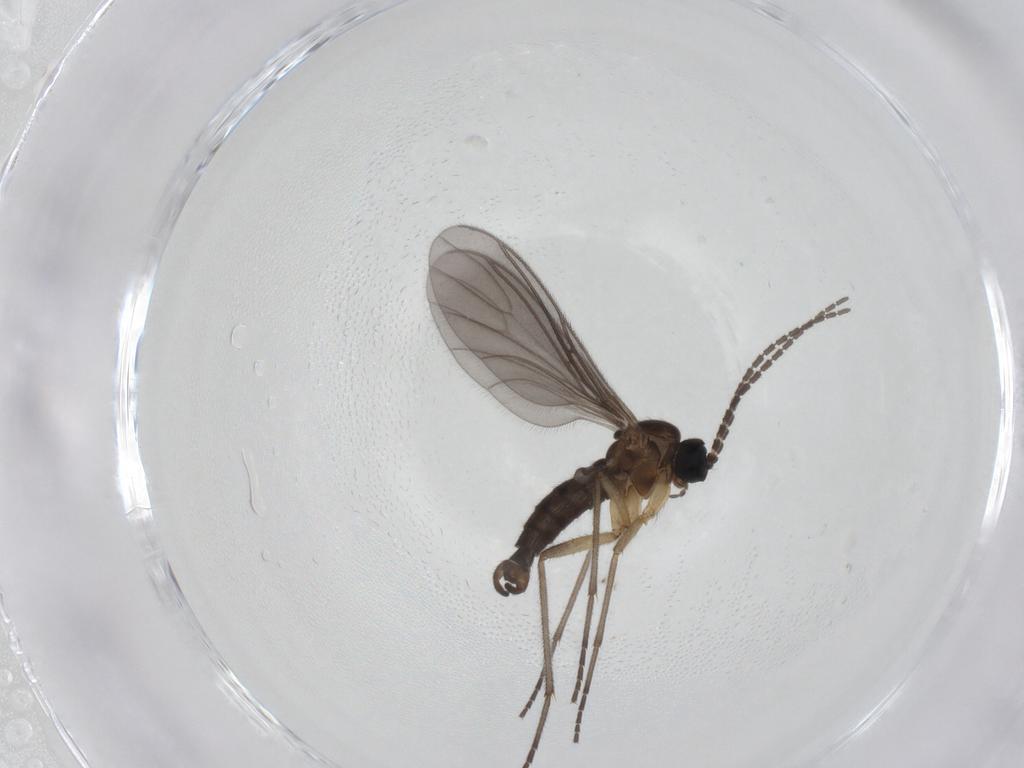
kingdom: Animalia
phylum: Arthropoda
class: Insecta
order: Diptera
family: Sciaridae
